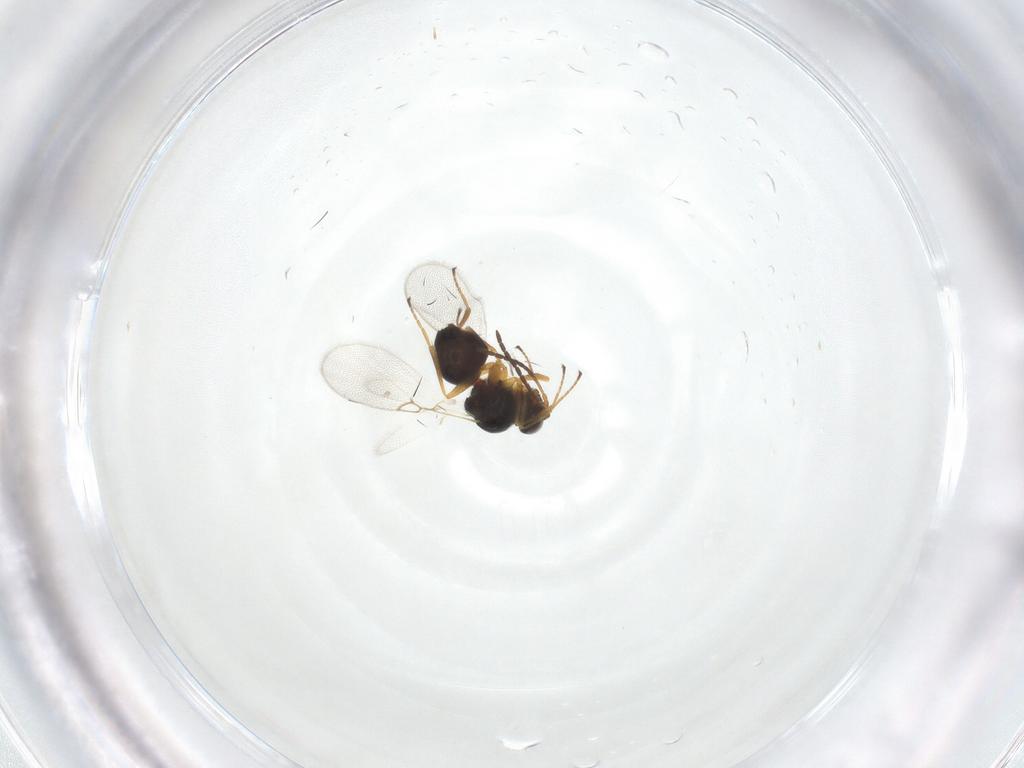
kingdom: Animalia
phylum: Arthropoda
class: Insecta
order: Hymenoptera
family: Figitidae
